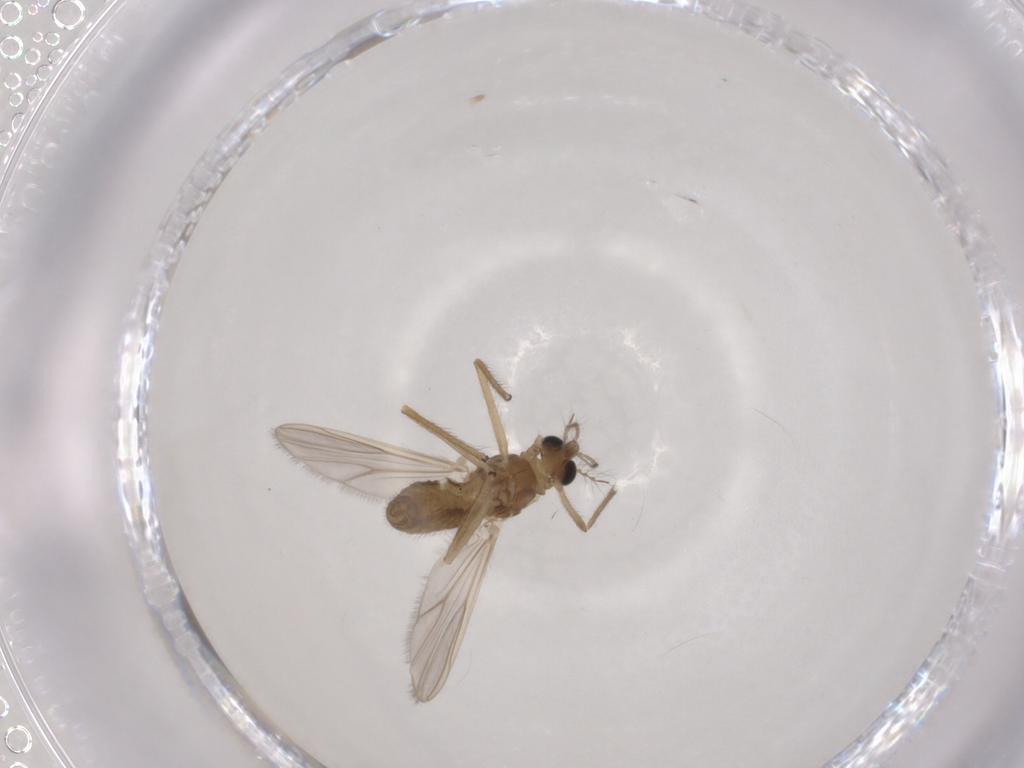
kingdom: Animalia
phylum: Arthropoda
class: Insecta
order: Diptera
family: Chironomidae
